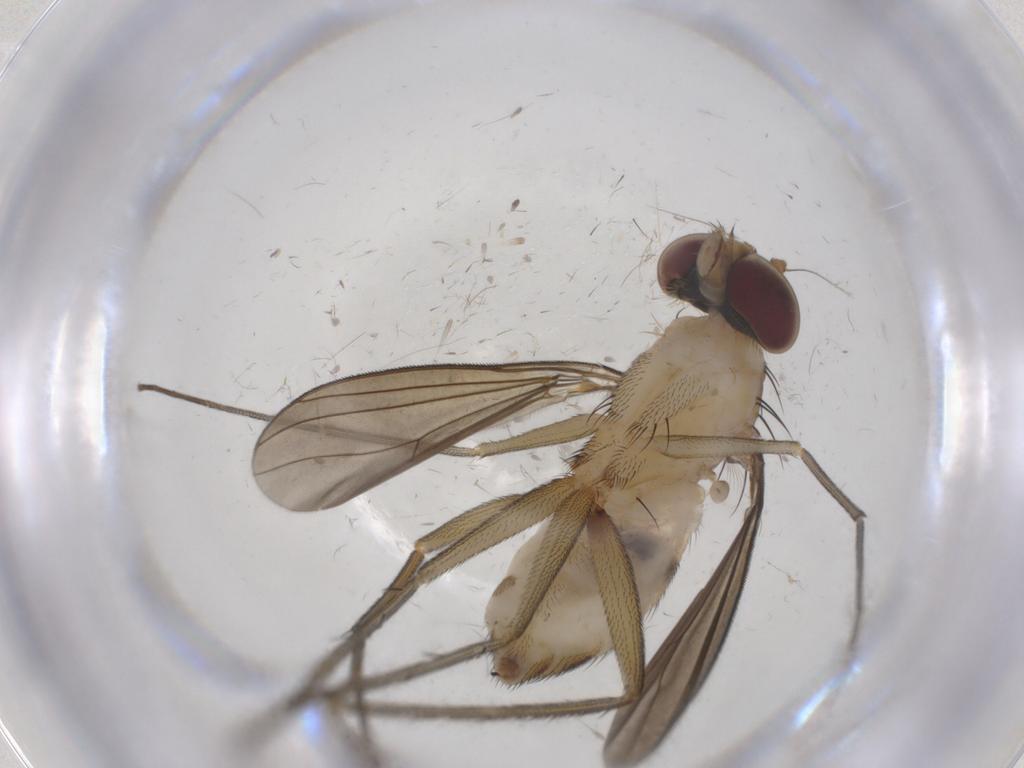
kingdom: Animalia
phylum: Arthropoda
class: Insecta
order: Diptera
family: Dolichopodidae
